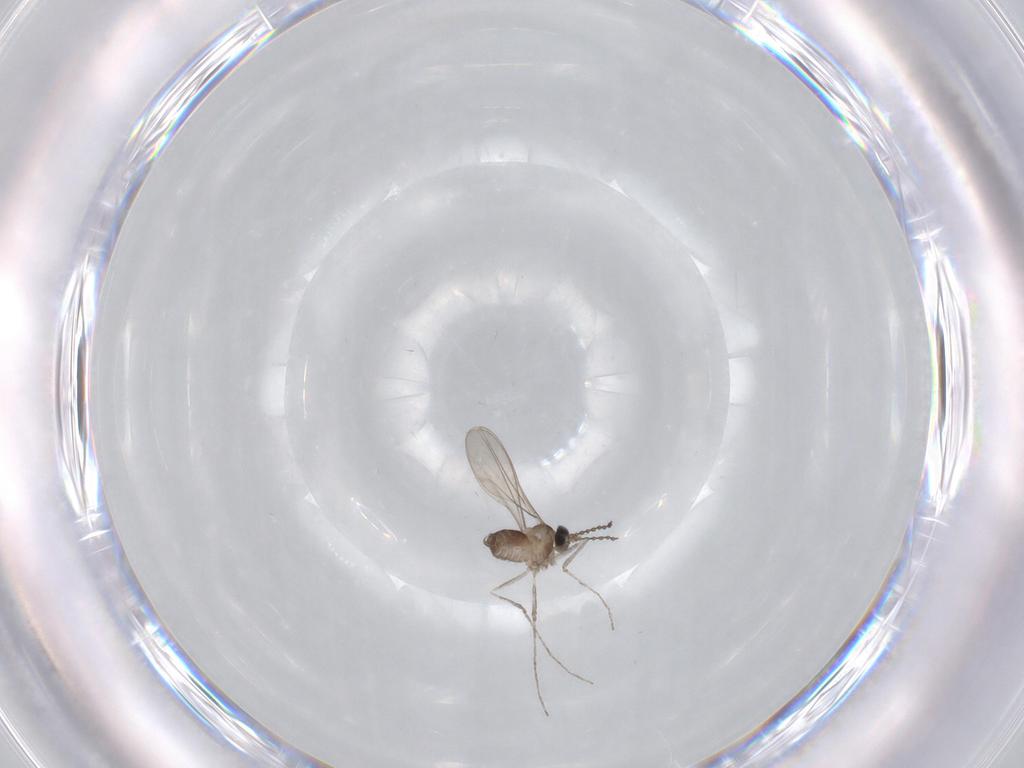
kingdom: Animalia
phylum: Arthropoda
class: Insecta
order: Diptera
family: Cecidomyiidae
